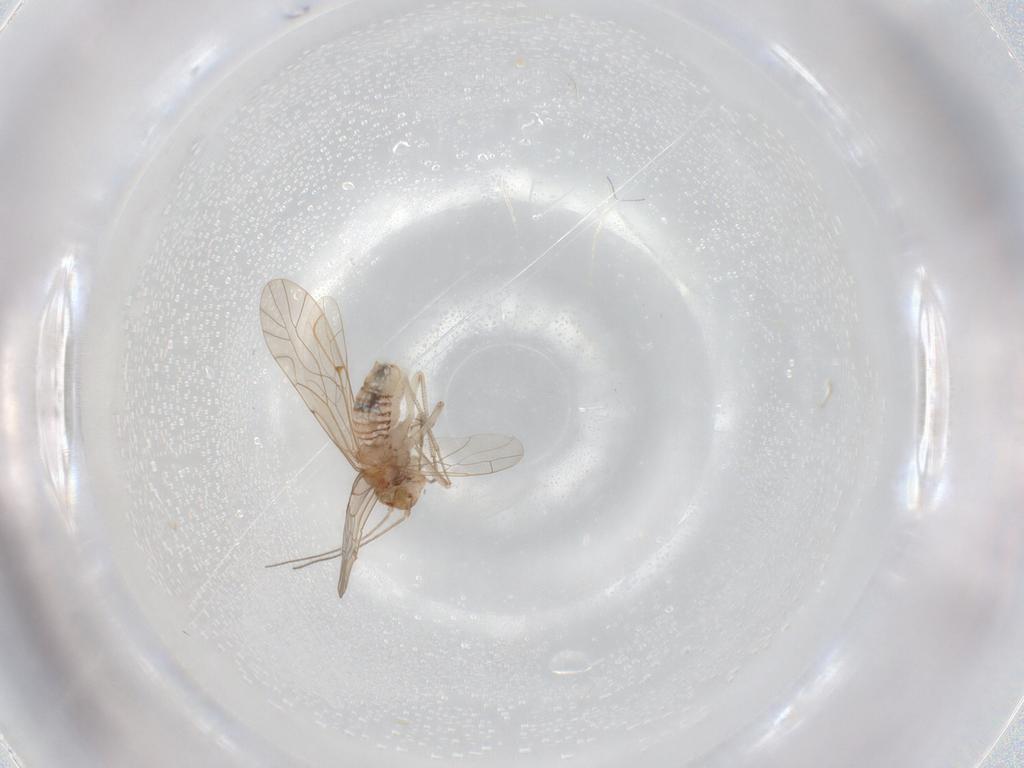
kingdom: Animalia
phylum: Arthropoda
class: Insecta
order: Psocodea
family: Lachesillidae
